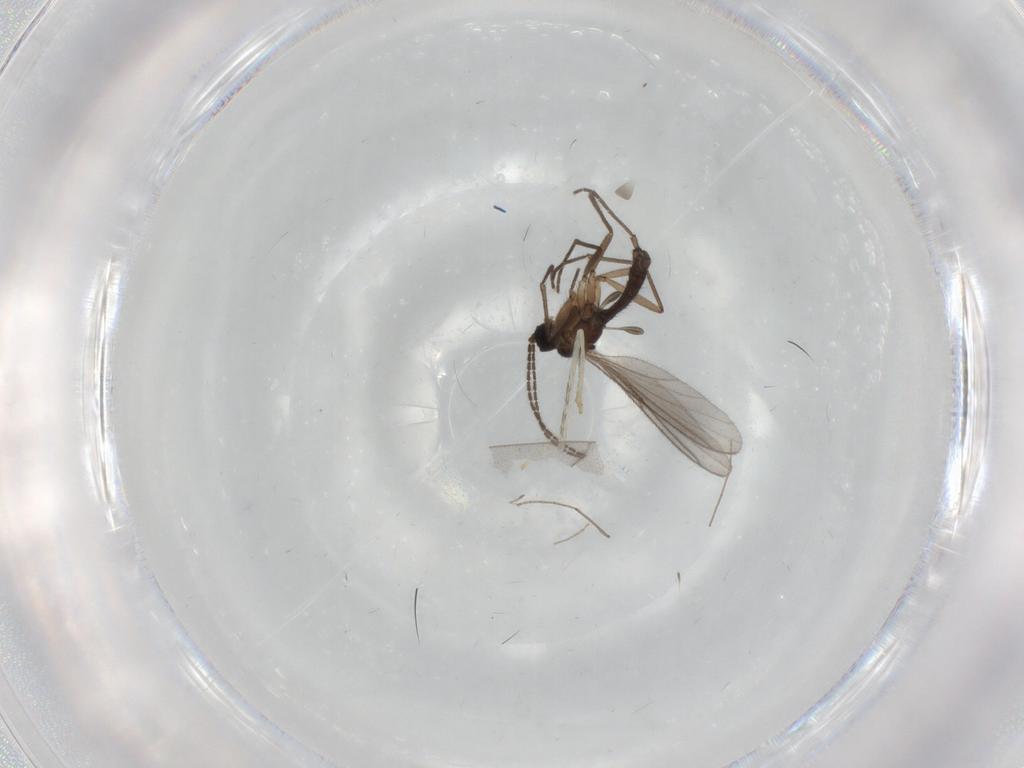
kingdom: Animalia
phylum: Arthropoda
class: Insecta
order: Diptera
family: Sciaridae
